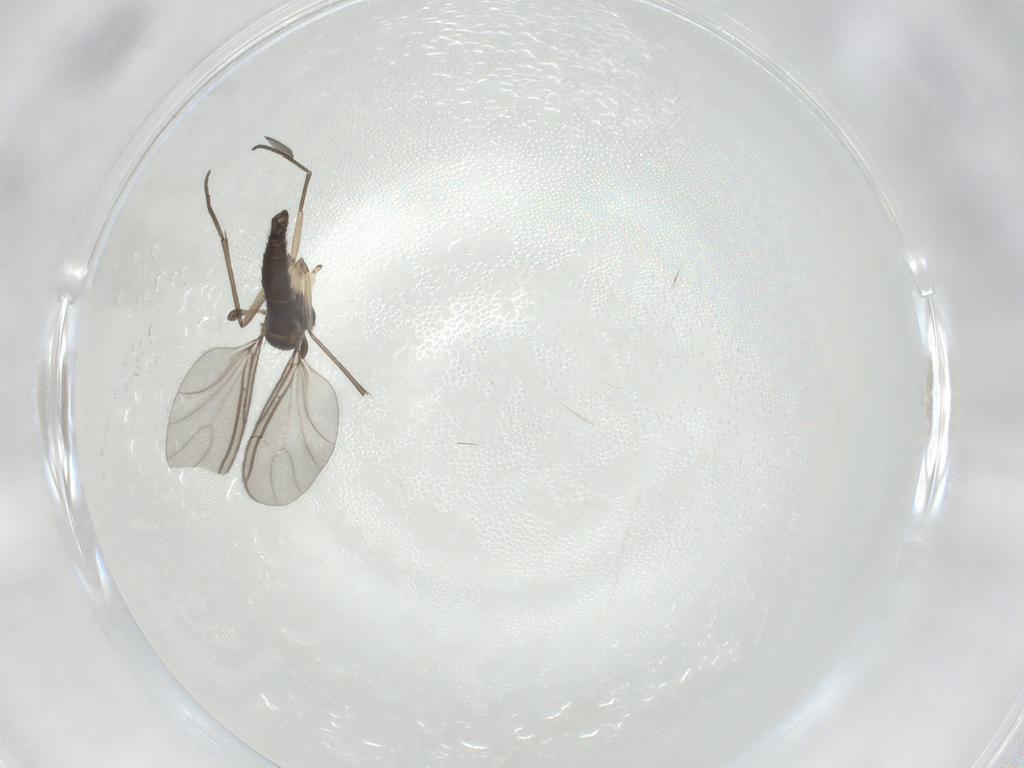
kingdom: Animalia
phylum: Arthropoda
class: Insecta
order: Diptera
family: Sciaridae
